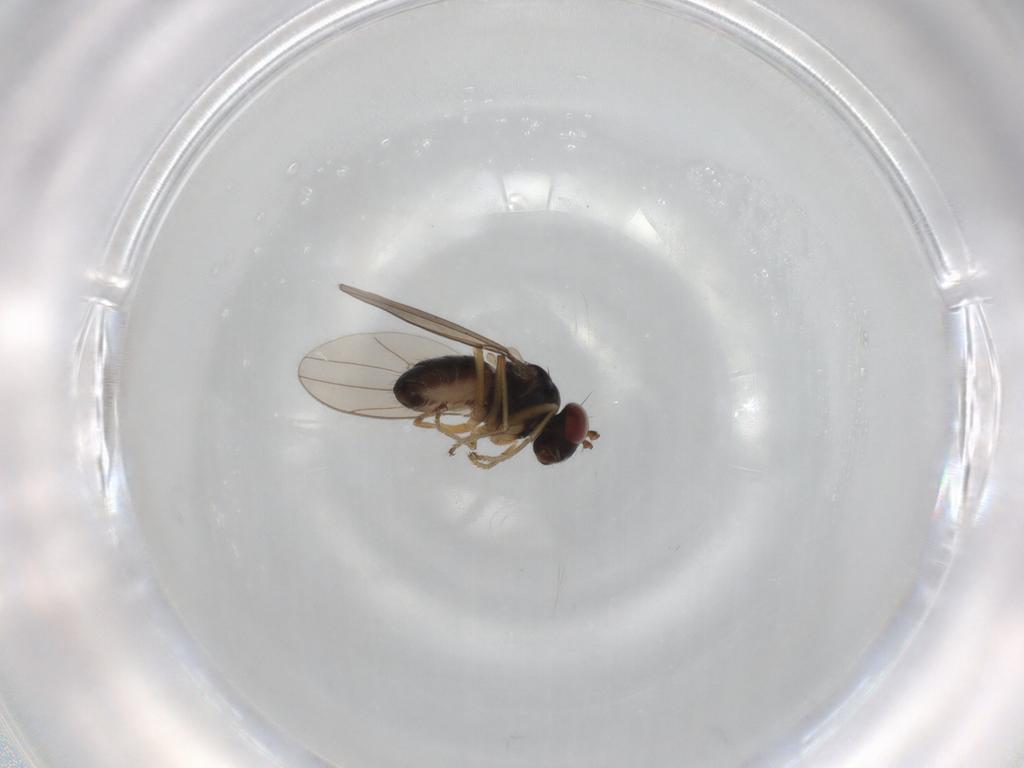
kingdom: Animalia
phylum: Arthropoda
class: Insecta
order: Diptera
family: Ephydridae
